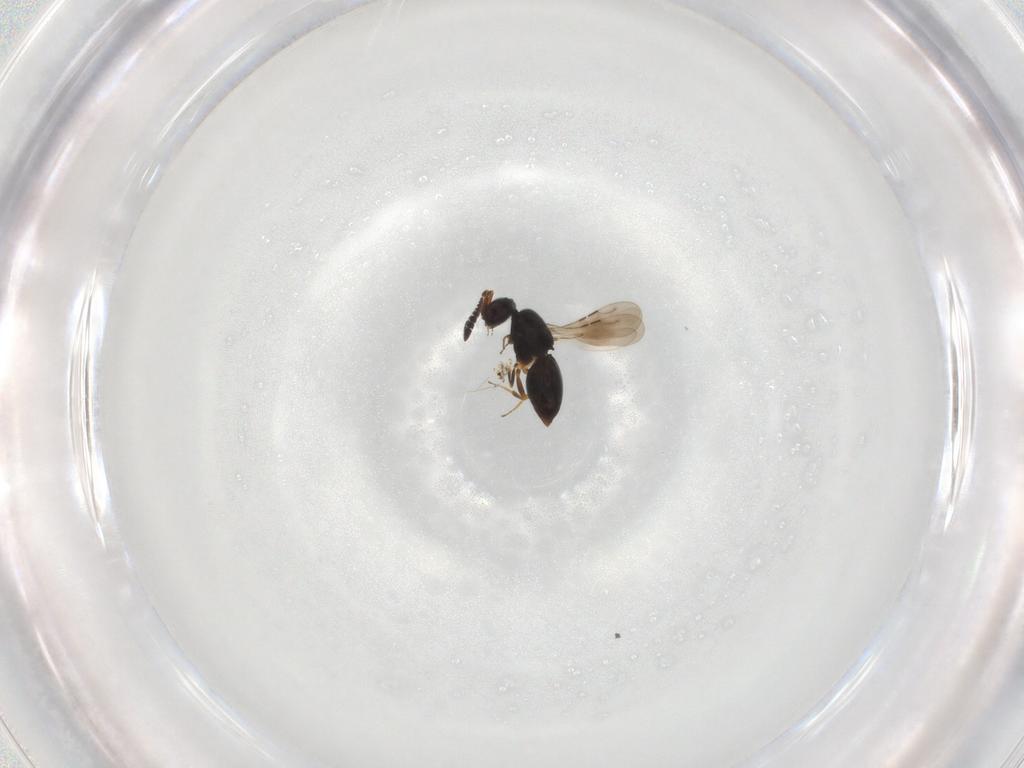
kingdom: Animalia
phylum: Arthropoda
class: Insecta
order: Hymenoptera
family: Ceraphronidae
